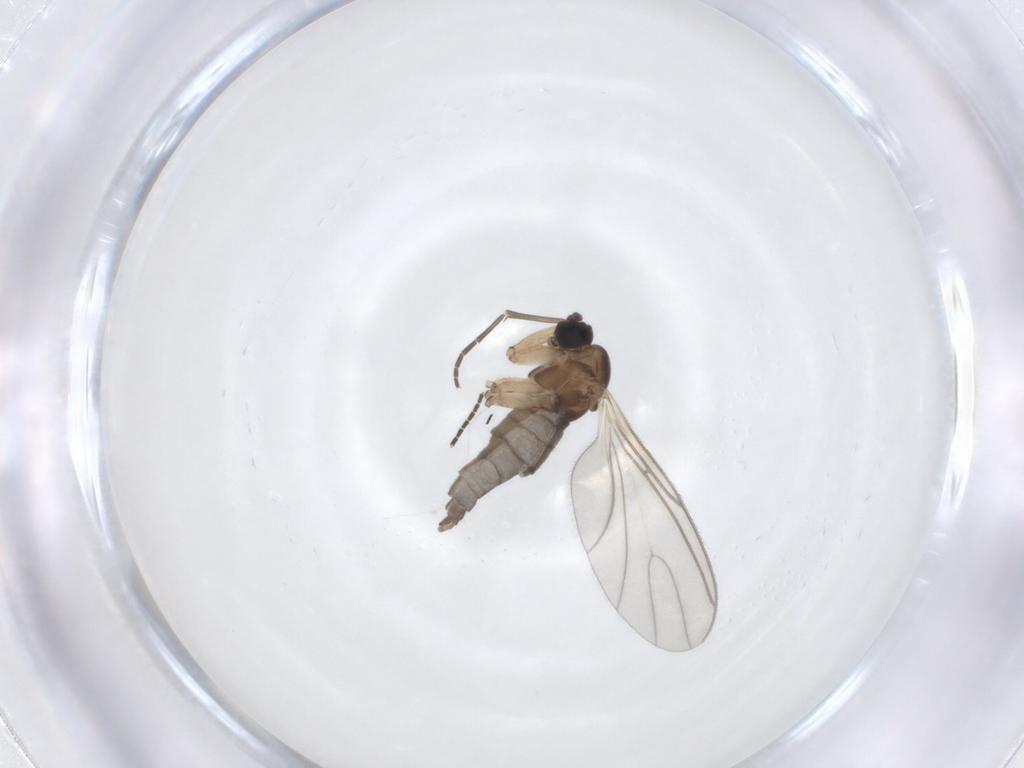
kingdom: Animalia
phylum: Arthropoda
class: Insecta
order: Diptera
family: Sciaridae
